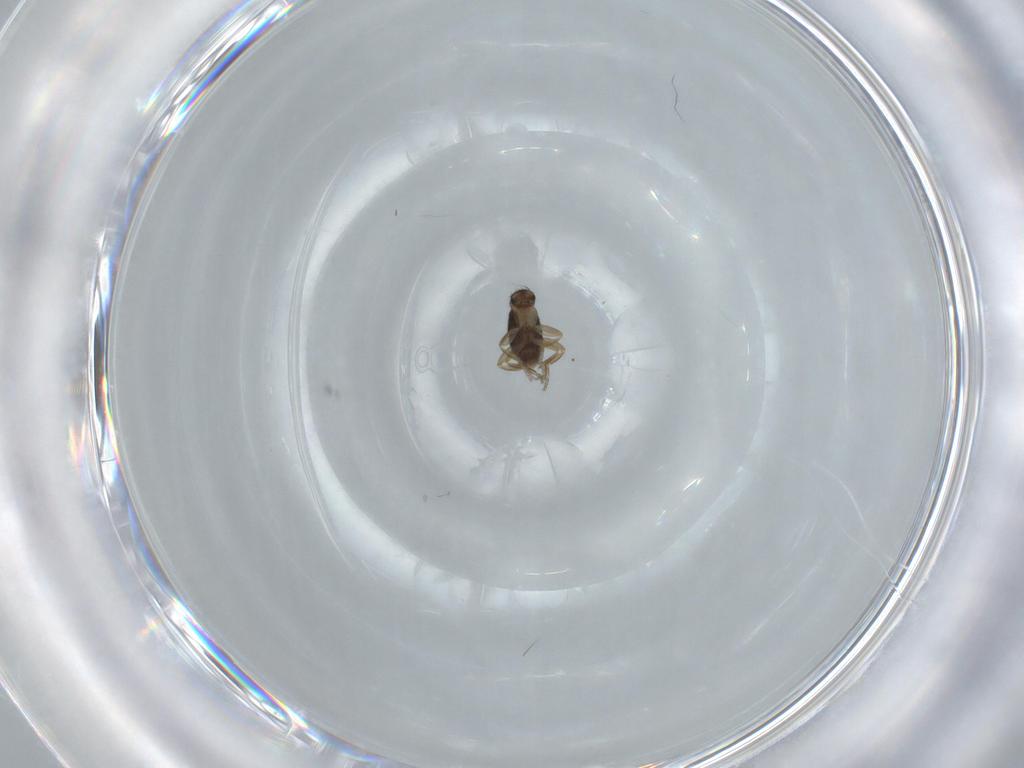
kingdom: Animalia
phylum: Arthropoda
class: Insecta
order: Diptera
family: Phoridae
